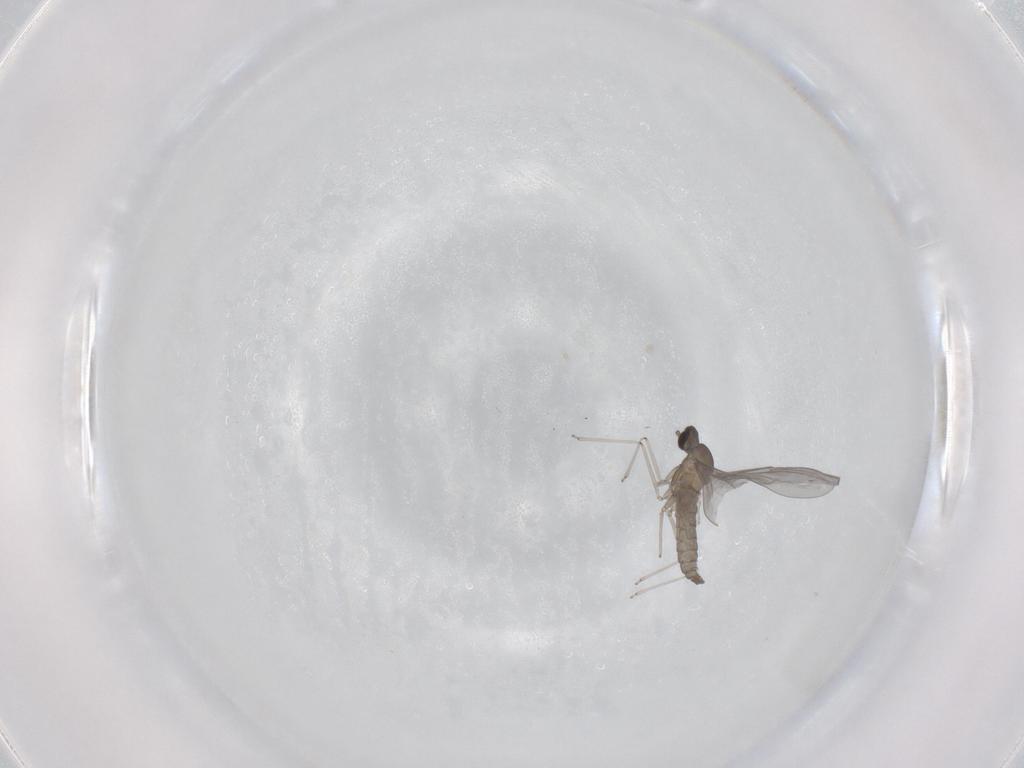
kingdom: Animalia
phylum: Arthropoda
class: Insecta
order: Diptera
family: Cecidomyiidae
